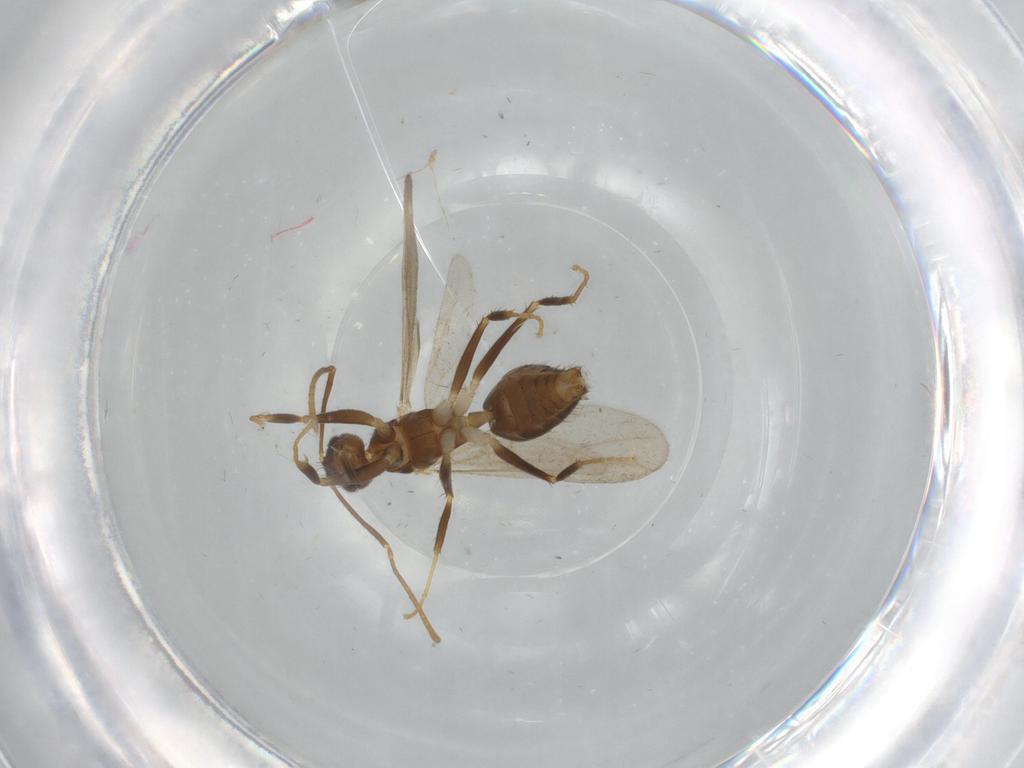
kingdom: Animalia
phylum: Arthropoda
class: Insecta
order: Hymenoptera
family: Formicidae
